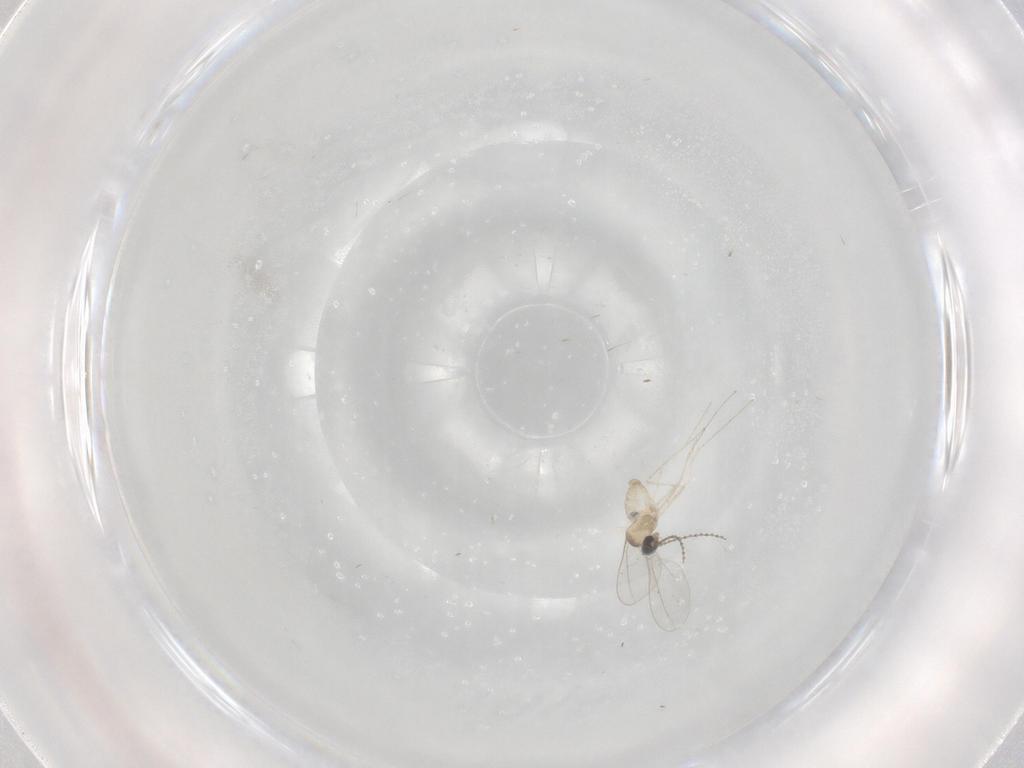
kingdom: Animalia
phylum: Arthropoda
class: Insecta
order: Diptera
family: Cecidomyiidae
